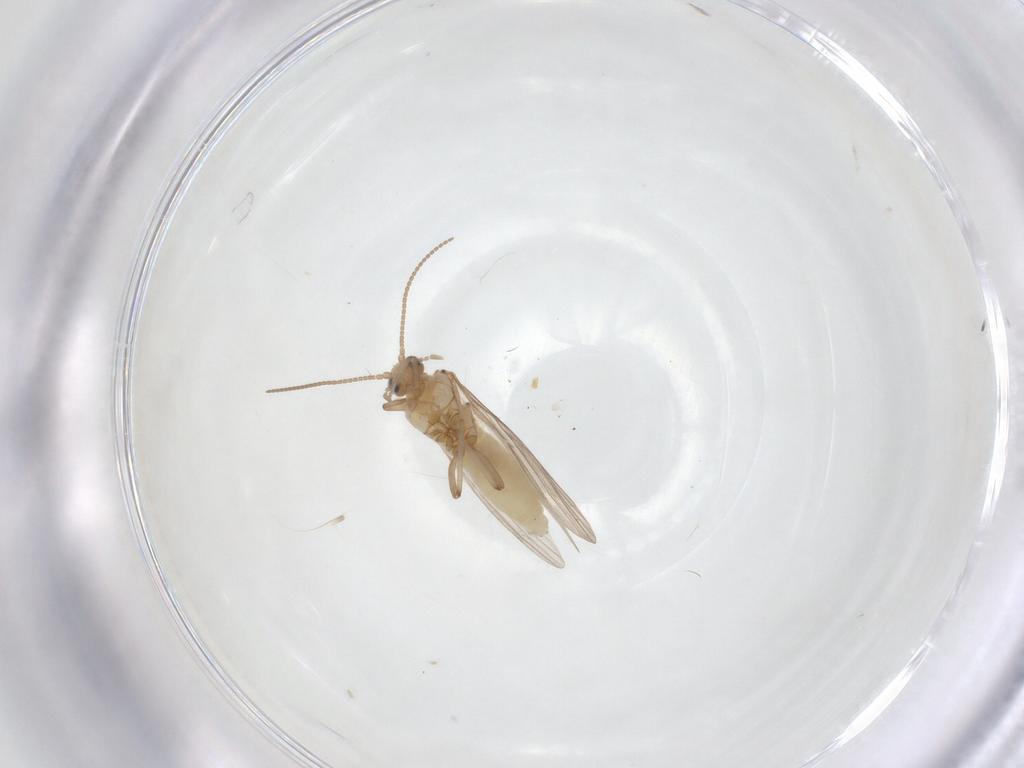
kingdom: Animalia
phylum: Arthropoda
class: Insecta
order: Neuroptera
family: Coniopterygidae
